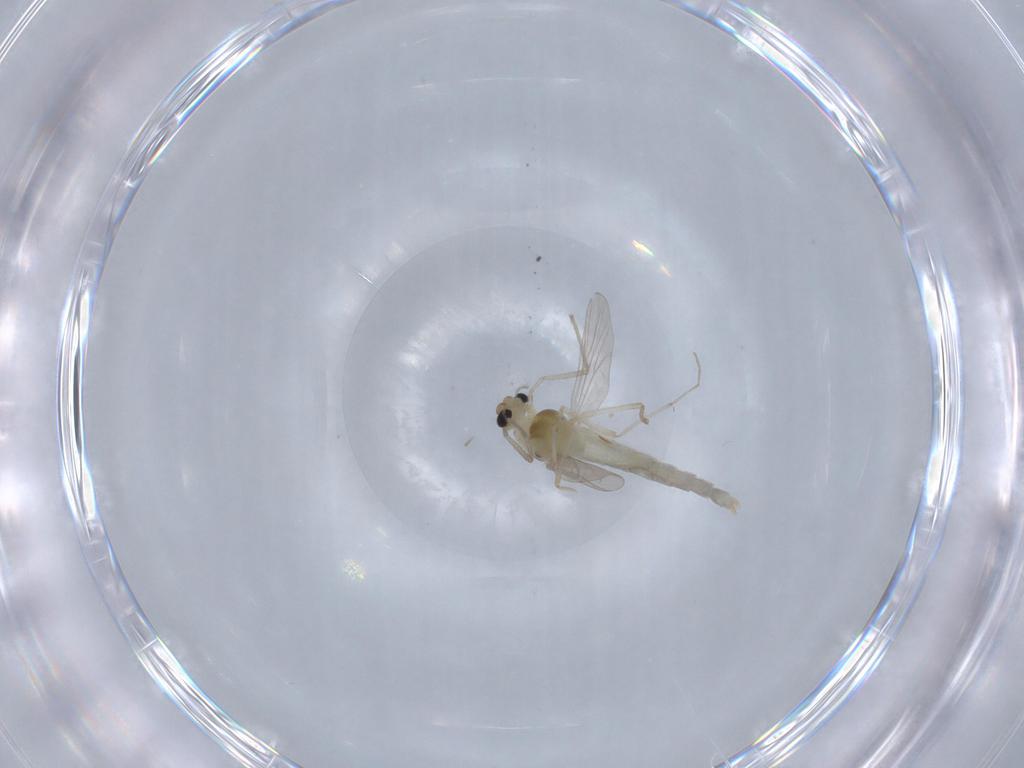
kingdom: Animalia
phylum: Arthropoda
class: Insecta
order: Diptera
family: Chironomidae
